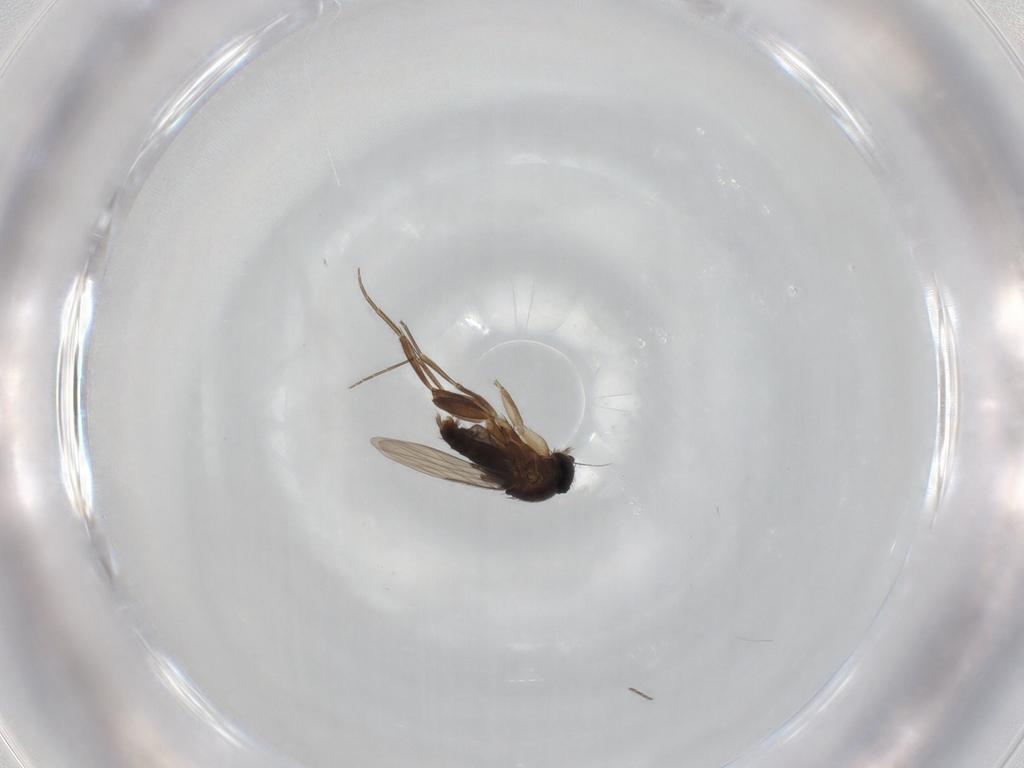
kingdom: Animalia
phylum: Arthropoda
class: Insecta
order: Diptera
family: Phoridae
